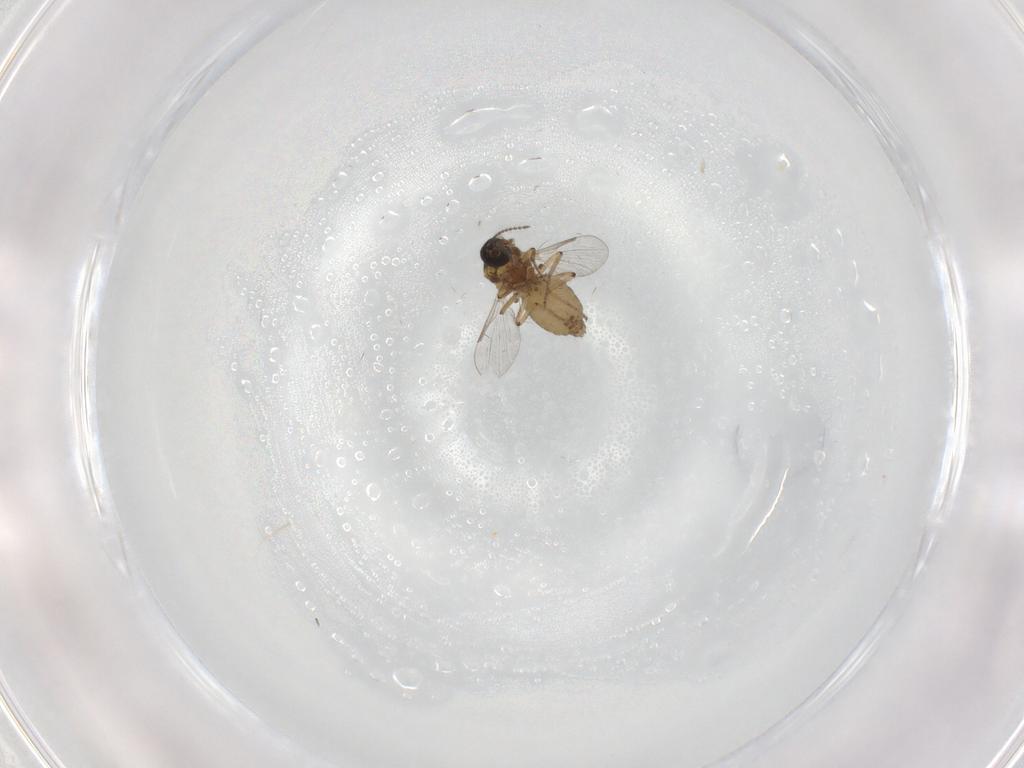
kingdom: Animalia
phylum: Arthropoda
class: Insecta
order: Diptera
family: Ceratopogonidae
